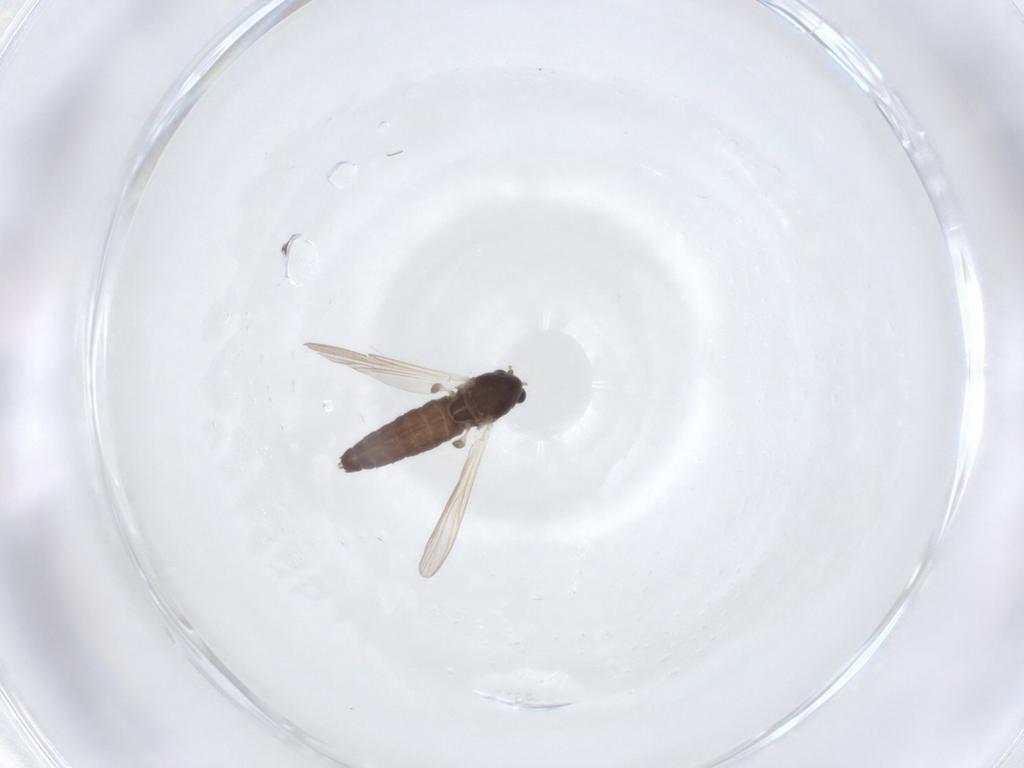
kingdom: Animalia
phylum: Arthropoda
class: Insecta
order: Diptera
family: Chironomidae
